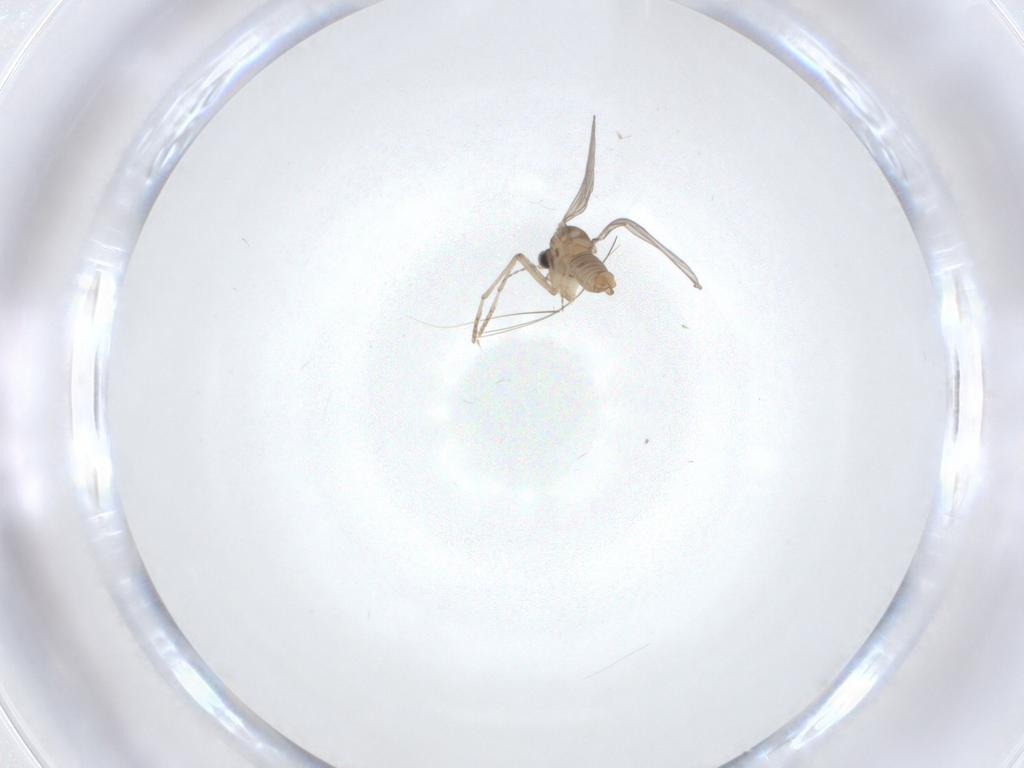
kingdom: Animalia
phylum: Arthropoda
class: Insecta
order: Diptera
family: Psychodidae
